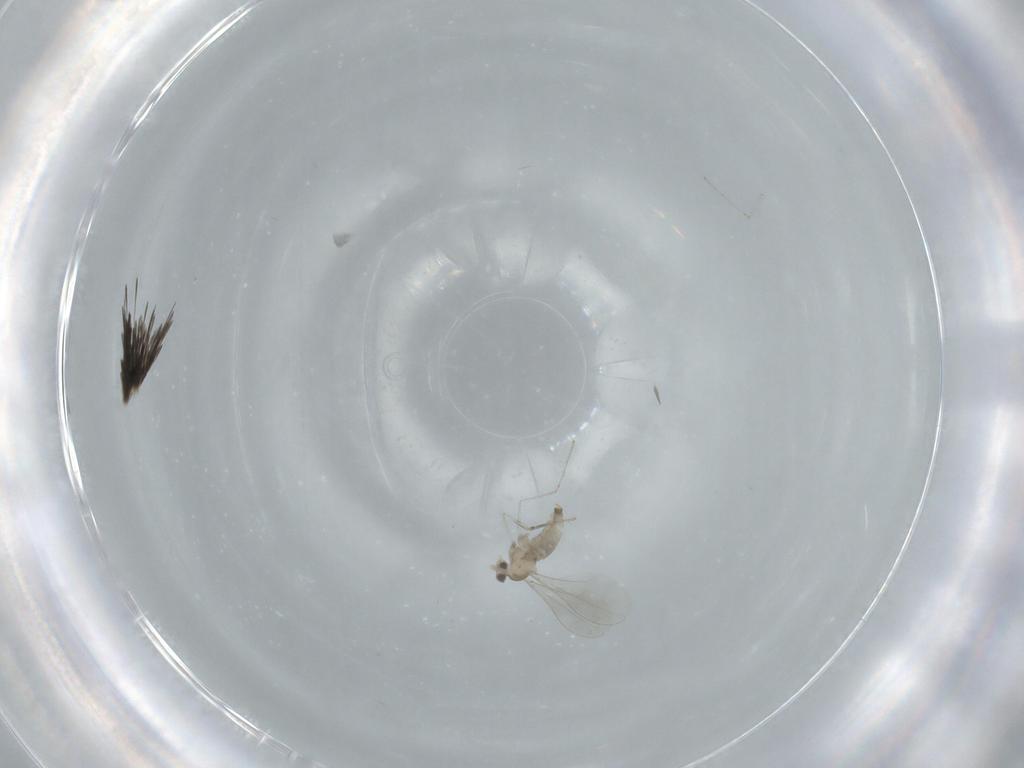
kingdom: Animalia
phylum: Arthropoda
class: Insecta
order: Diptera
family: Cecidomyiidae
